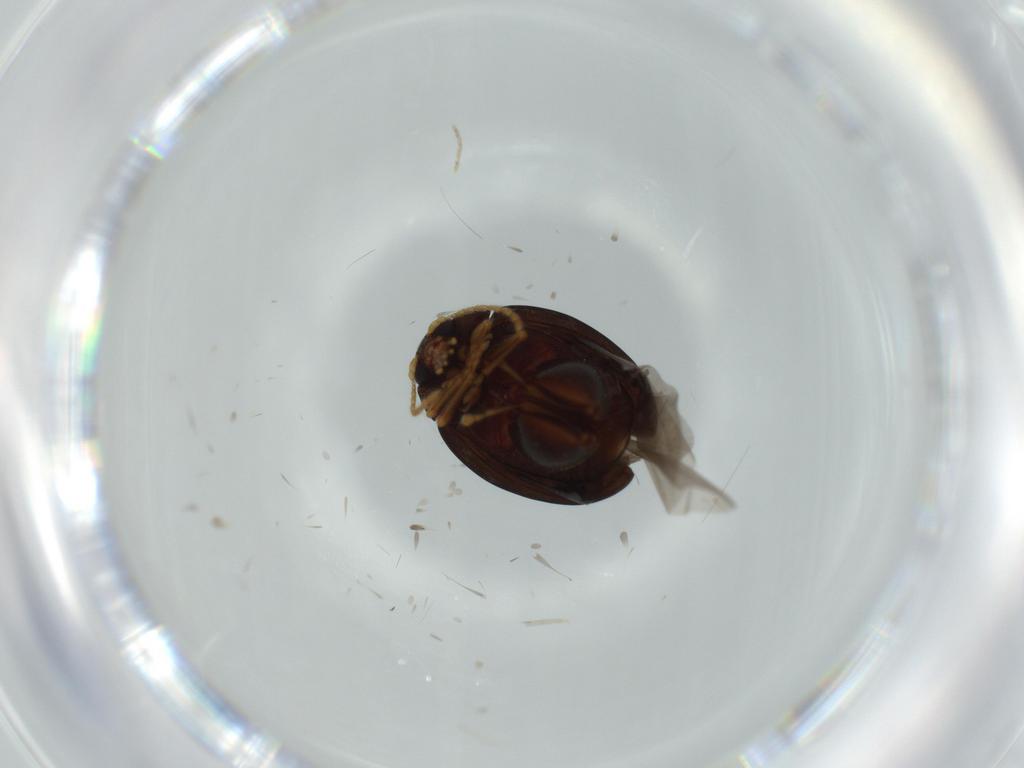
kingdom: Animalia
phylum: Arthropoda
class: Insecta
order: Coleoptera
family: Chrysomelidae
